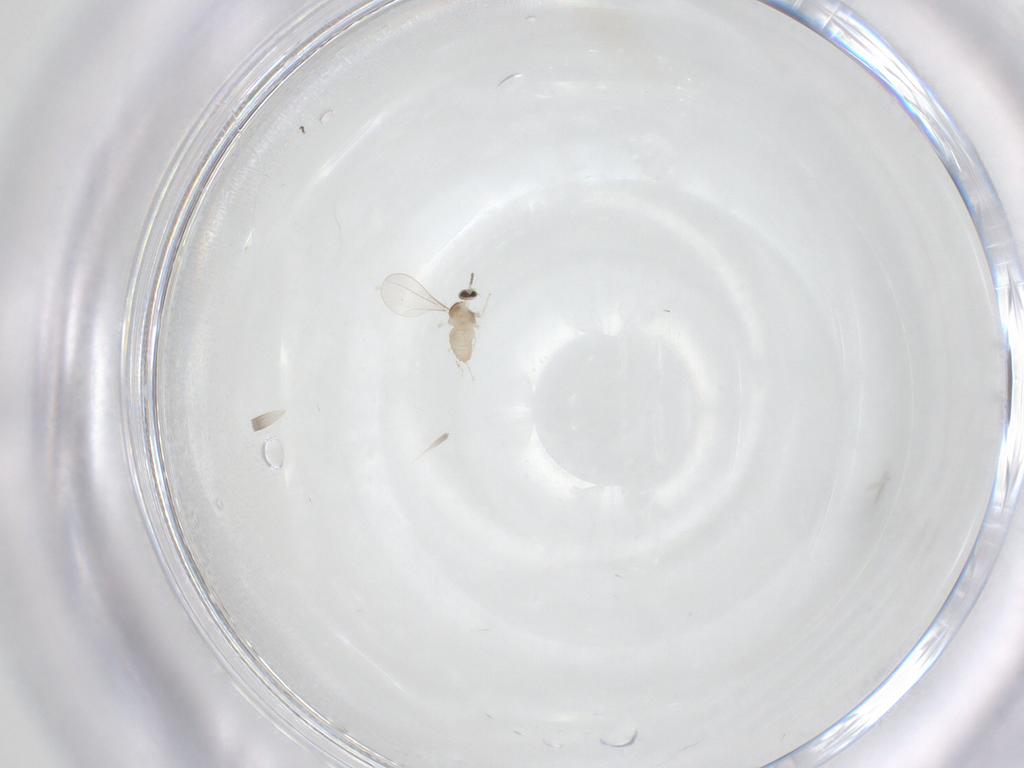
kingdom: Animalia
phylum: Arthropoda
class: Insecta
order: Diptera
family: Cecidomyiidae
